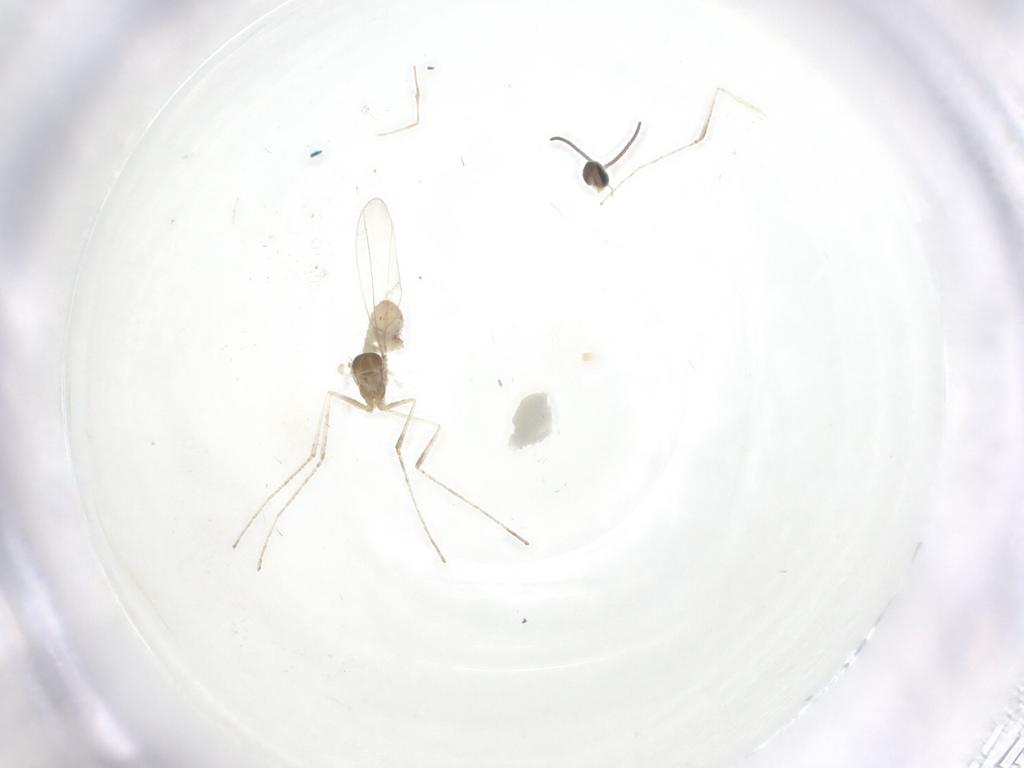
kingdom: Animalia
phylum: Arthropoda
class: Insecta
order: Diptera
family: Cecidomyiidae
